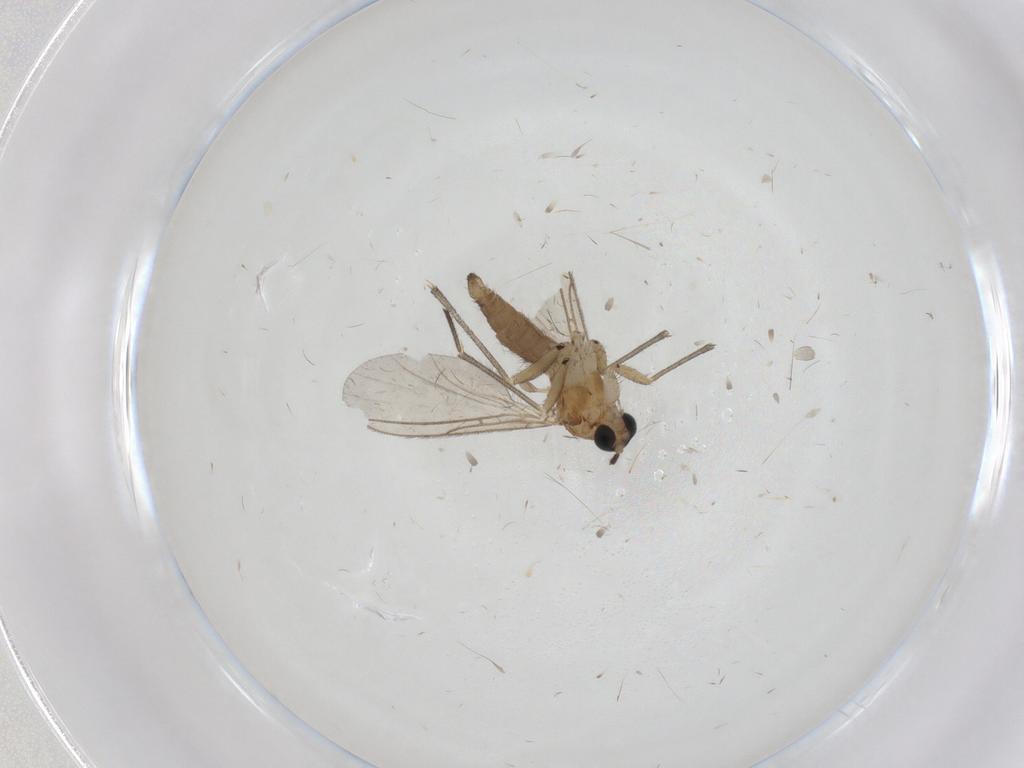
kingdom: Animalia
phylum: Arthropoda
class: Insecta
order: Diptera
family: Sciaridae
